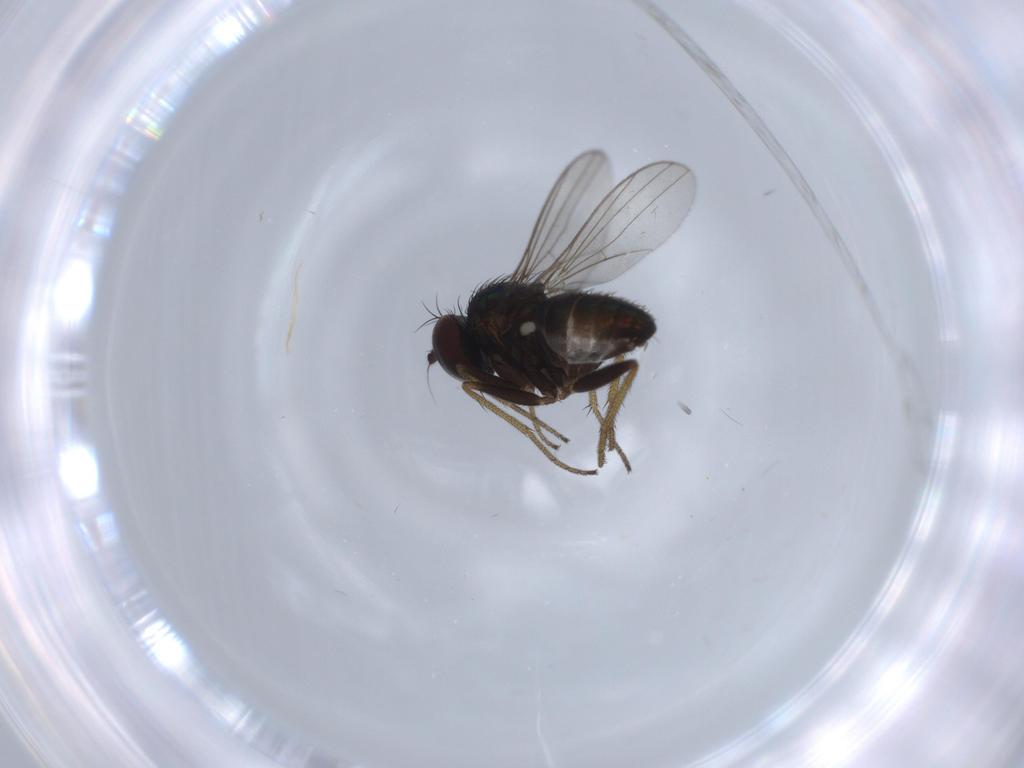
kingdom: Animalia
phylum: Arthropoda
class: Insecta
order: Diptera
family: Dolichopodidae
